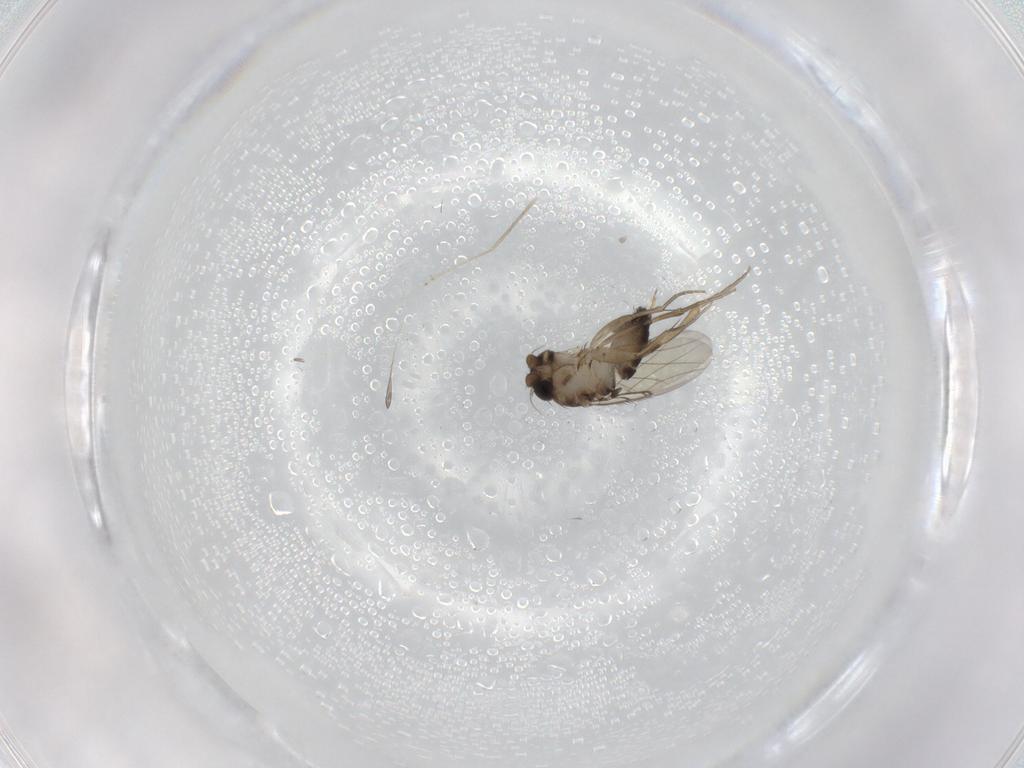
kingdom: Animalia
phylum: Arthropoda
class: Insecta
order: Diptera
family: Phoridae
